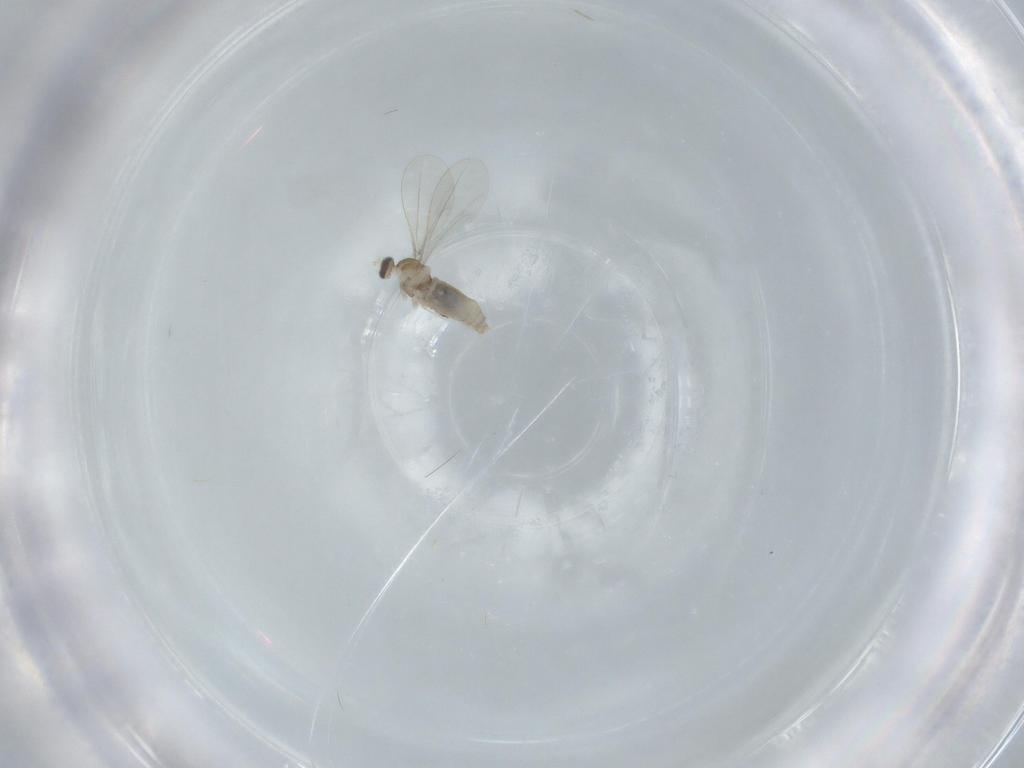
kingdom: Animalia
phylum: Arthropoda
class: Insecta
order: Diptera
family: Cecidomyiidae
